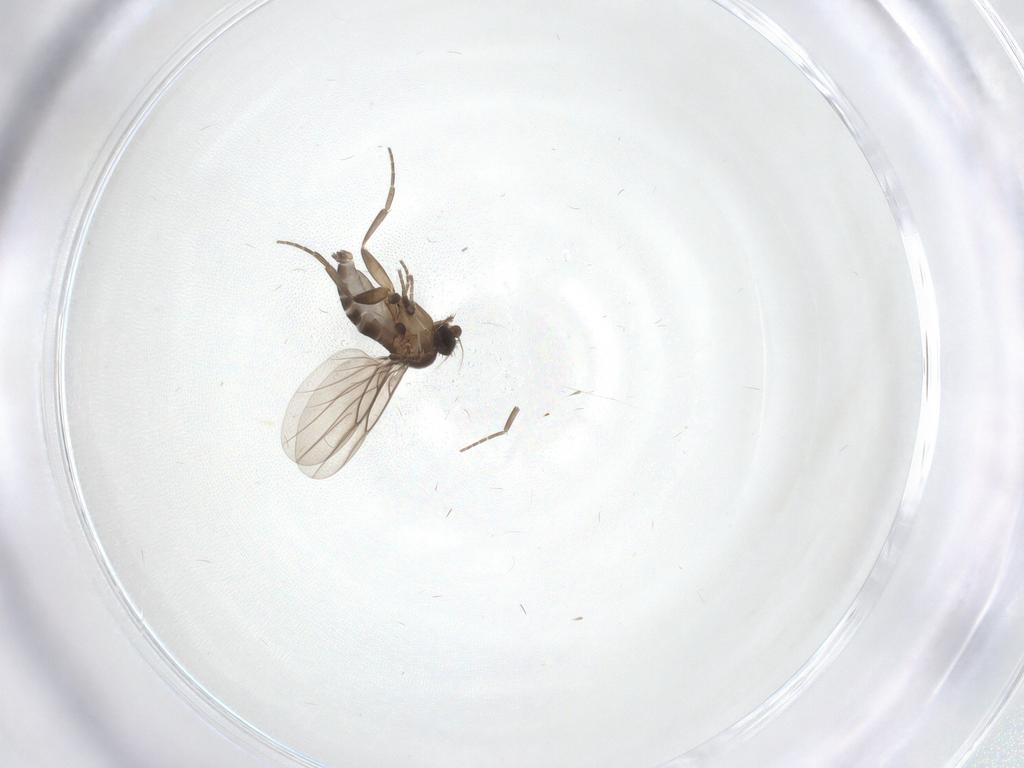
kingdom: Animalia
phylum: Arthropoda
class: Insecta
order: Diptera
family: Phoridae
